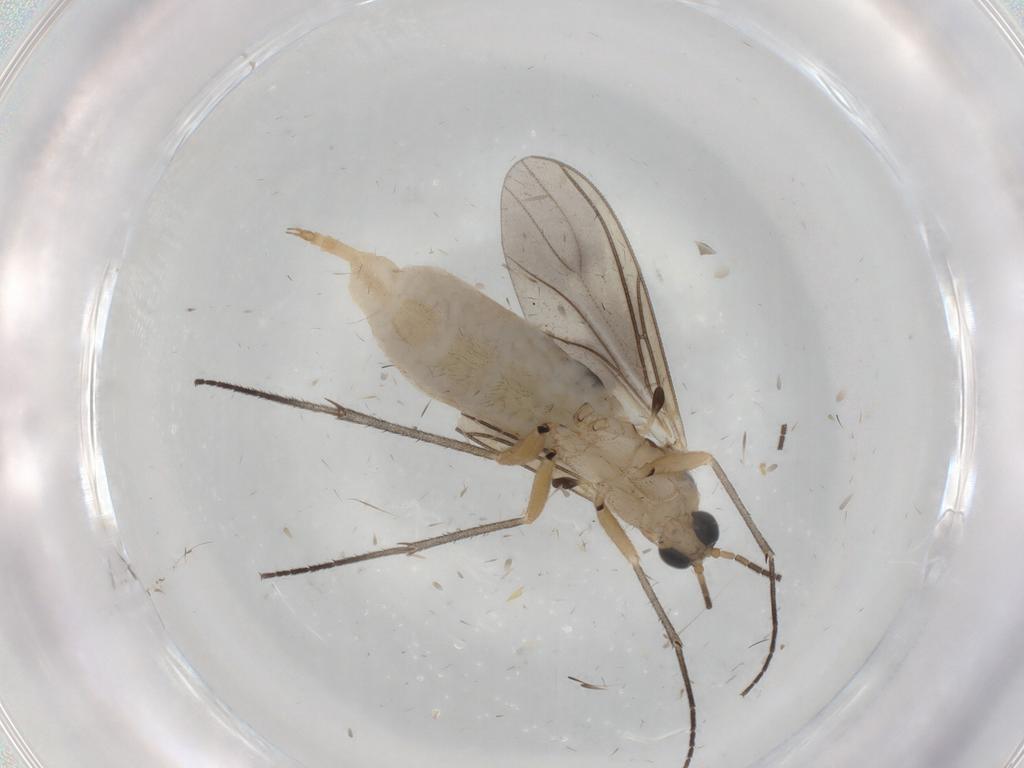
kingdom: Animalia
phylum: Arthropoda
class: Insecta
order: Diptera
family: Sciaridae
